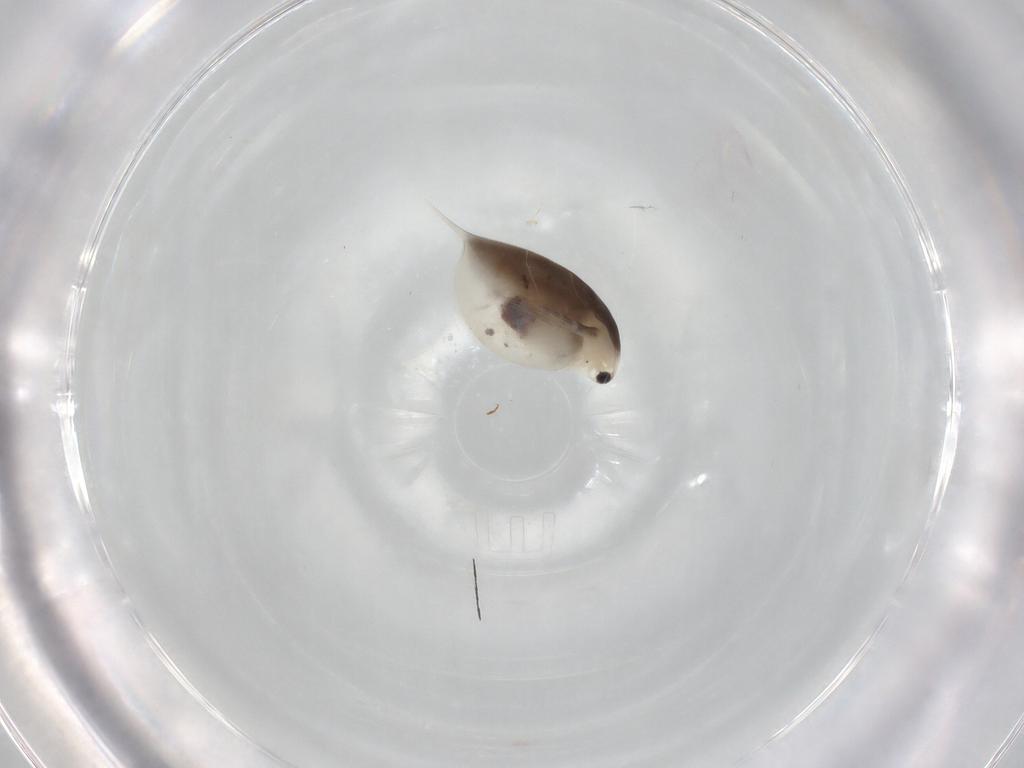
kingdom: Animalia
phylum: Arthropoda
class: Branchiopoda
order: Diplostraca
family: Daphniidae
